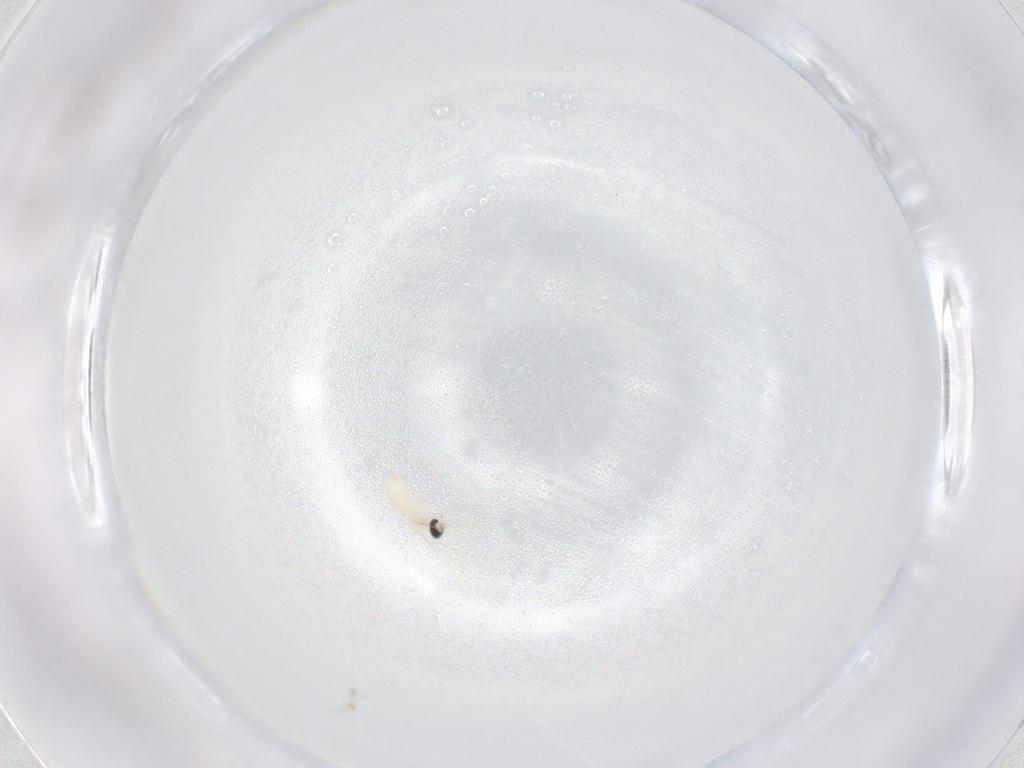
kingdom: Animalia
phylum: Arthropoda
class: Insecta
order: Diptera
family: Cecidomyiidae
